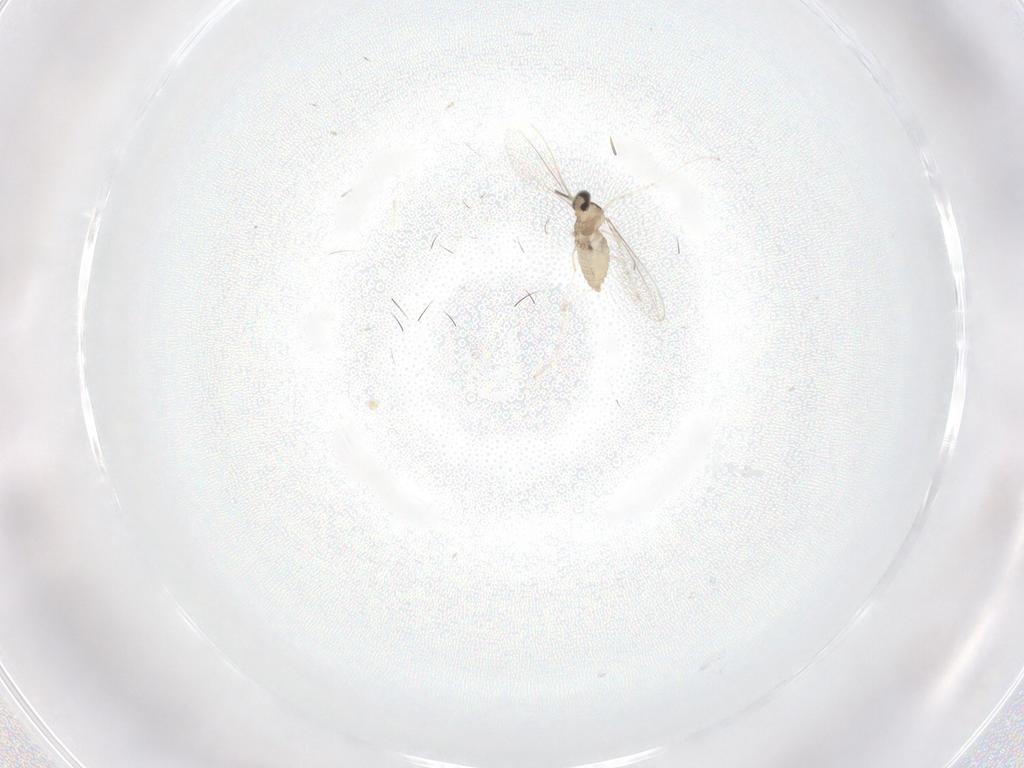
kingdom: Animalia
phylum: Arthropoda
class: Insecta
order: Diptera
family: Cecidomyiidae
